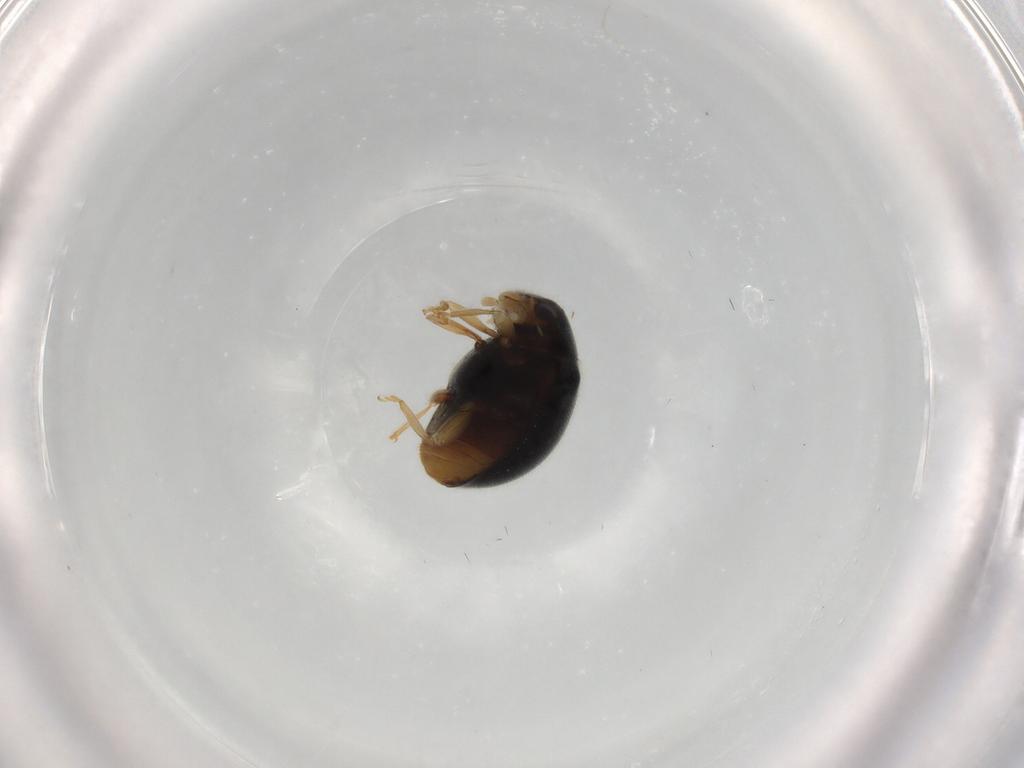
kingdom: Animalia
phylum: Arthropoda
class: Insecta
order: Coleoptera
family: Coccinellidae
